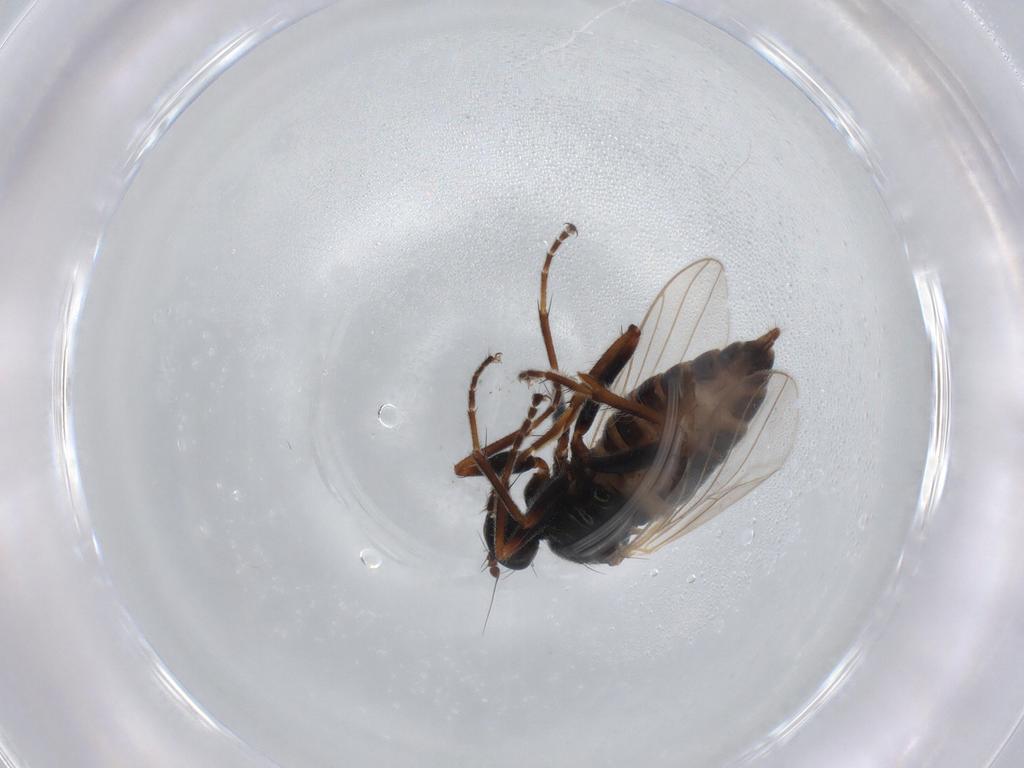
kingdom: Animalia
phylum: Arthropoda
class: Insecta
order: Diptera
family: Hybotidae
